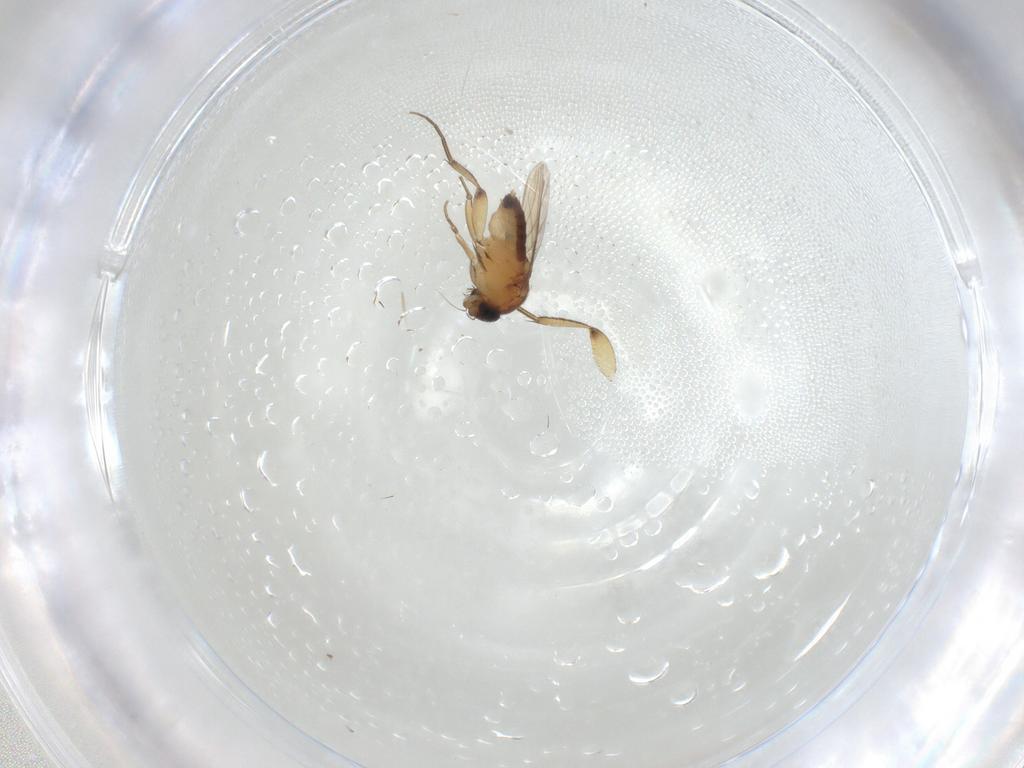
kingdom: Animalia
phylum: Arthropoda
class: Insecta
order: Diptera
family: Phoridae
